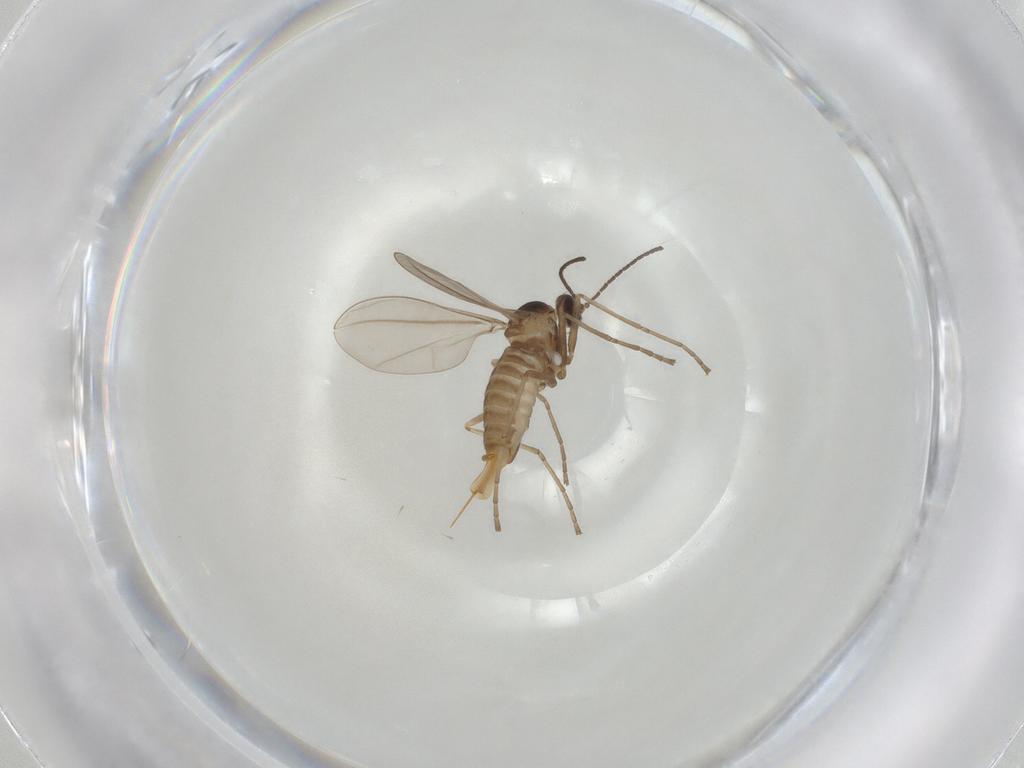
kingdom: Animalia
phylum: Arthropoda
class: Insecta
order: Diptera
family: Cecidomyiidae
